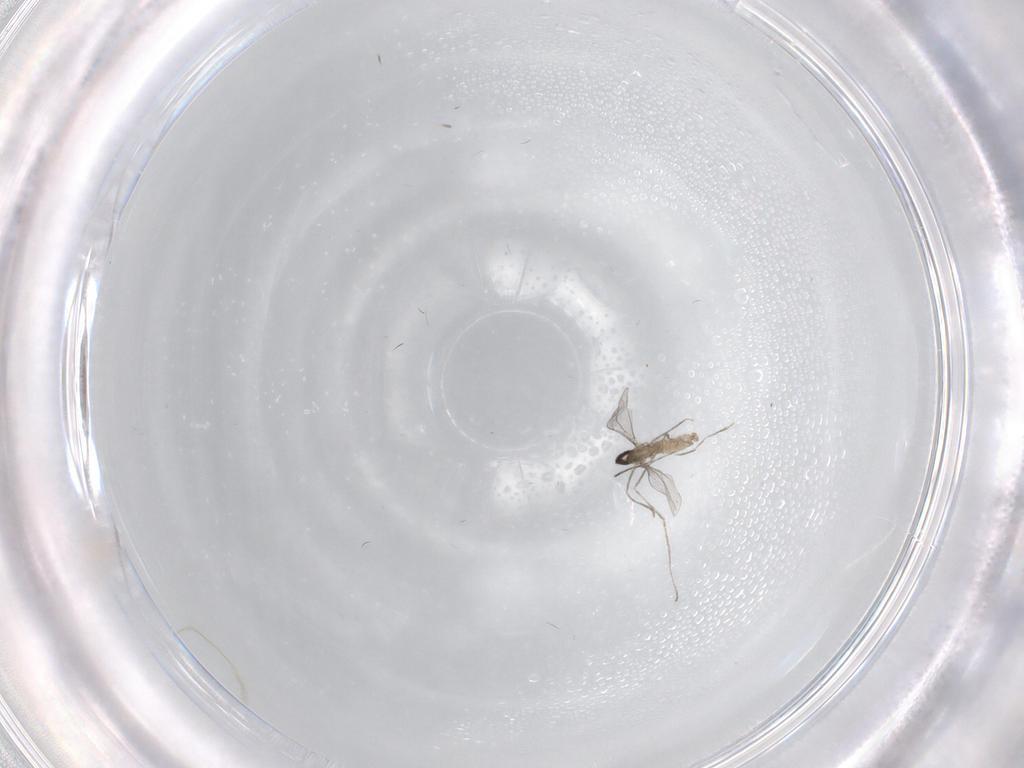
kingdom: Animalia
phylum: Arthropoda
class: Insecta
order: Diptera
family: Cecidomyiidae
